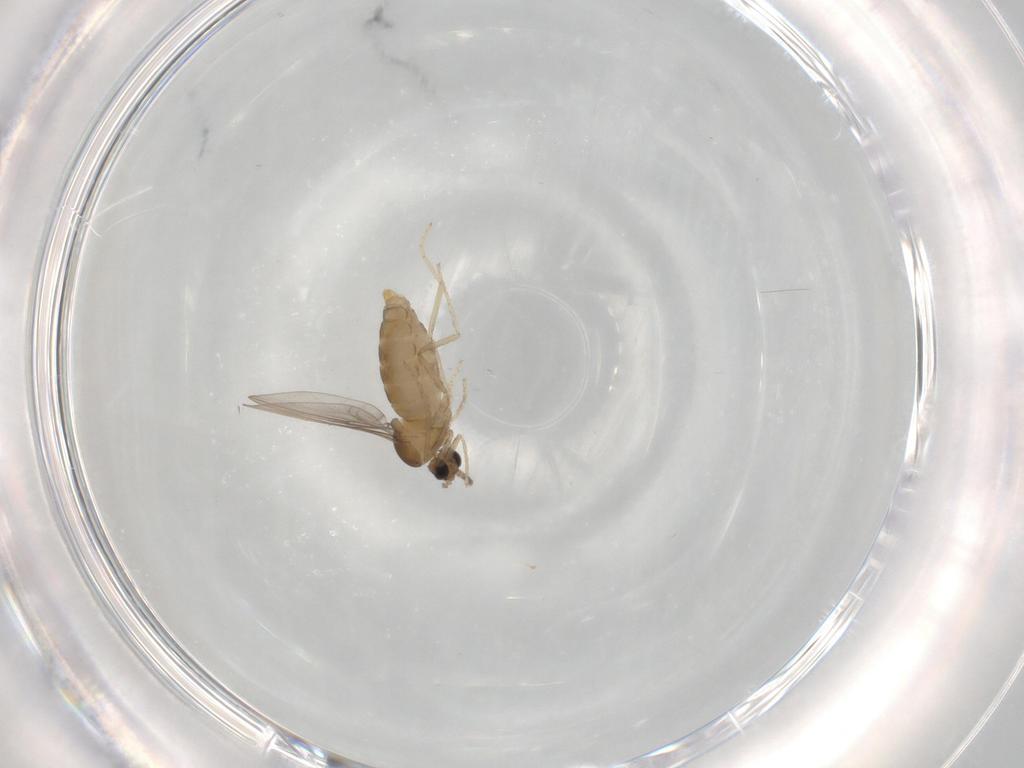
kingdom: Animalia
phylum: Arthropoda
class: Insecta
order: Diptera
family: Cecidomyiidae
